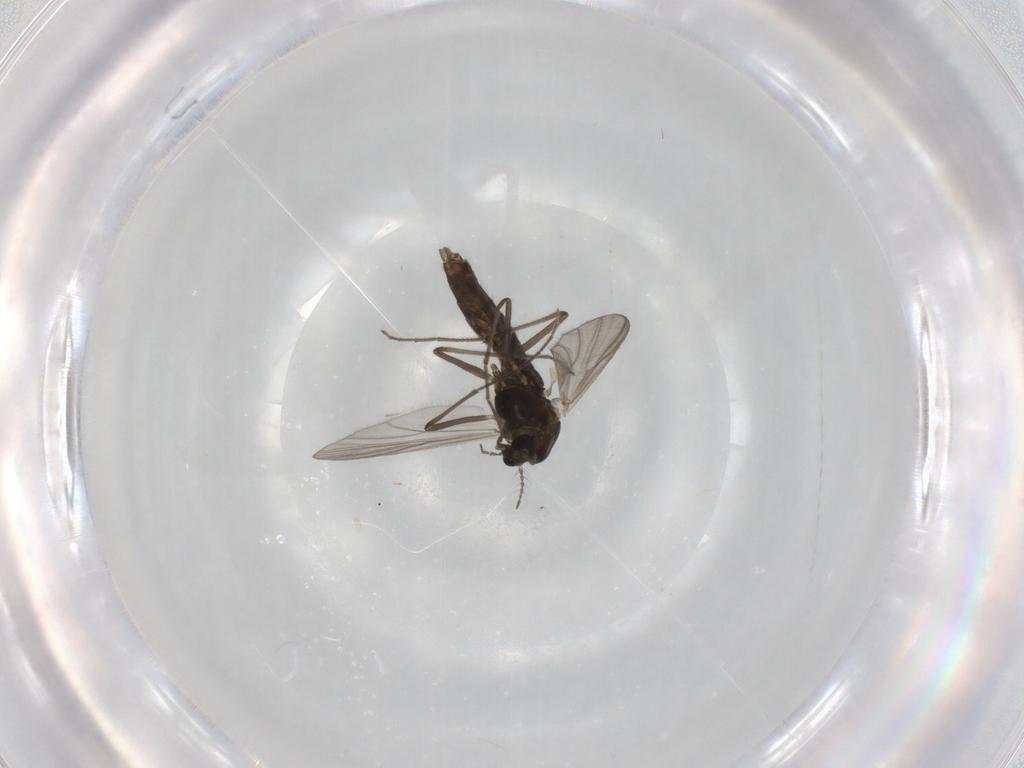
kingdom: Animalia
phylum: Arthropoda
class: Insecta
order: Diptera
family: Chironomidae
